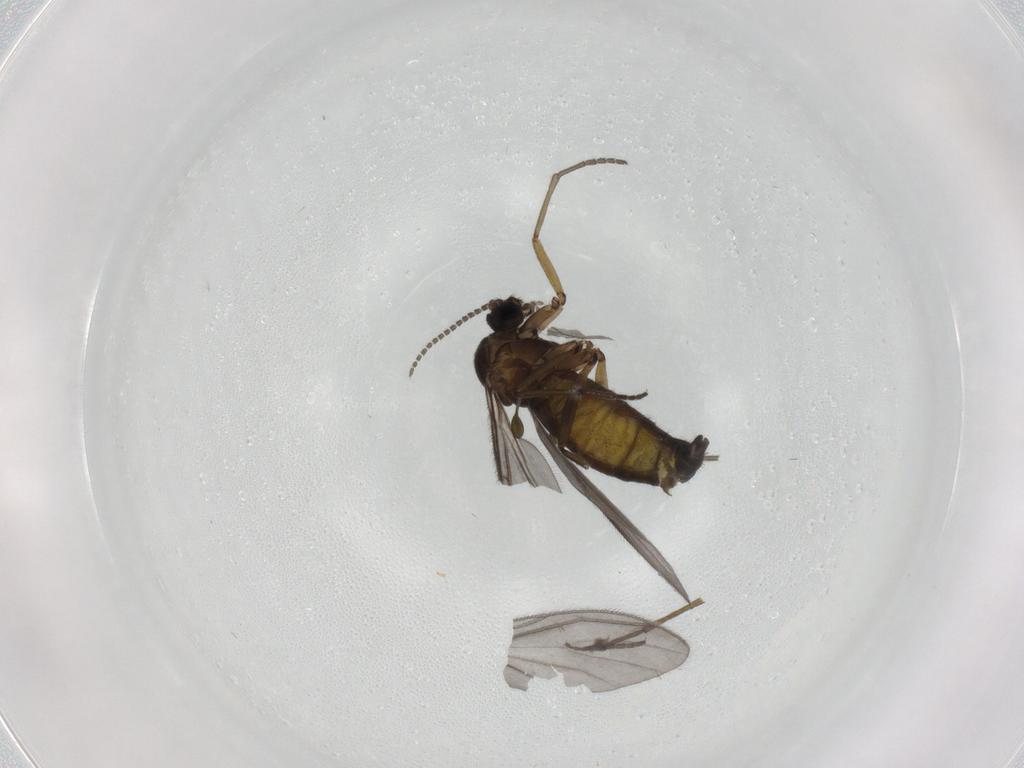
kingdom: Animalia
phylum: Arthropoda
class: Insecta
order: Diptera
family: Sciaridae
